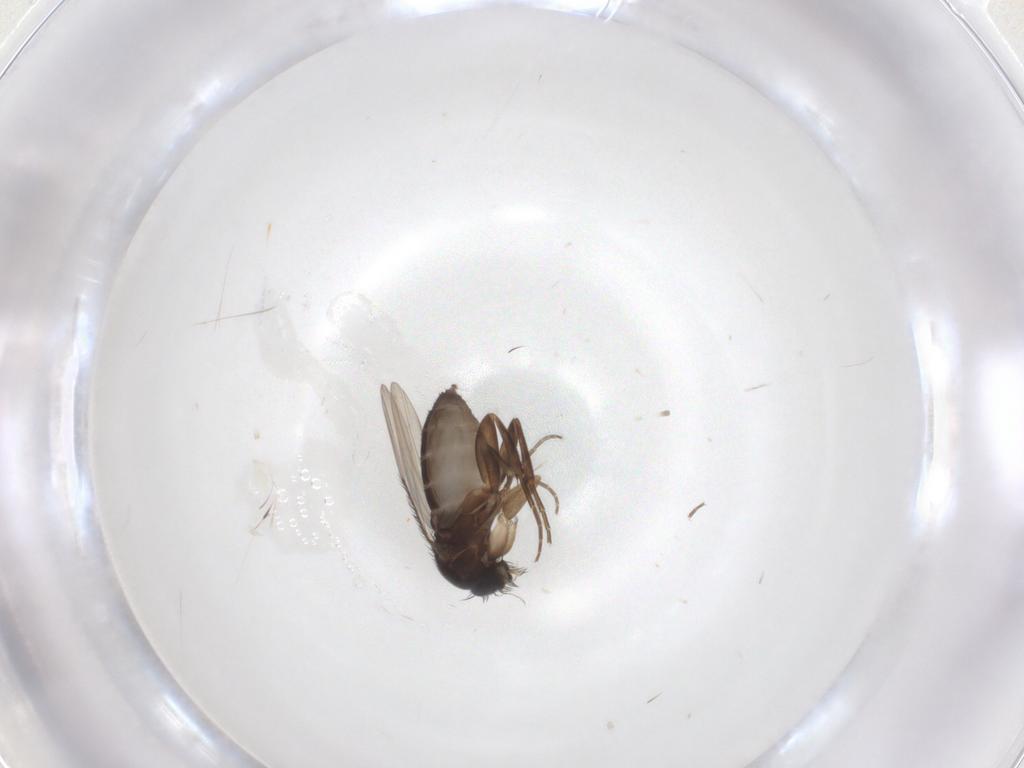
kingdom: Animalia
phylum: Arthropoda
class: Insecta
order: Diptera
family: Phoridae
